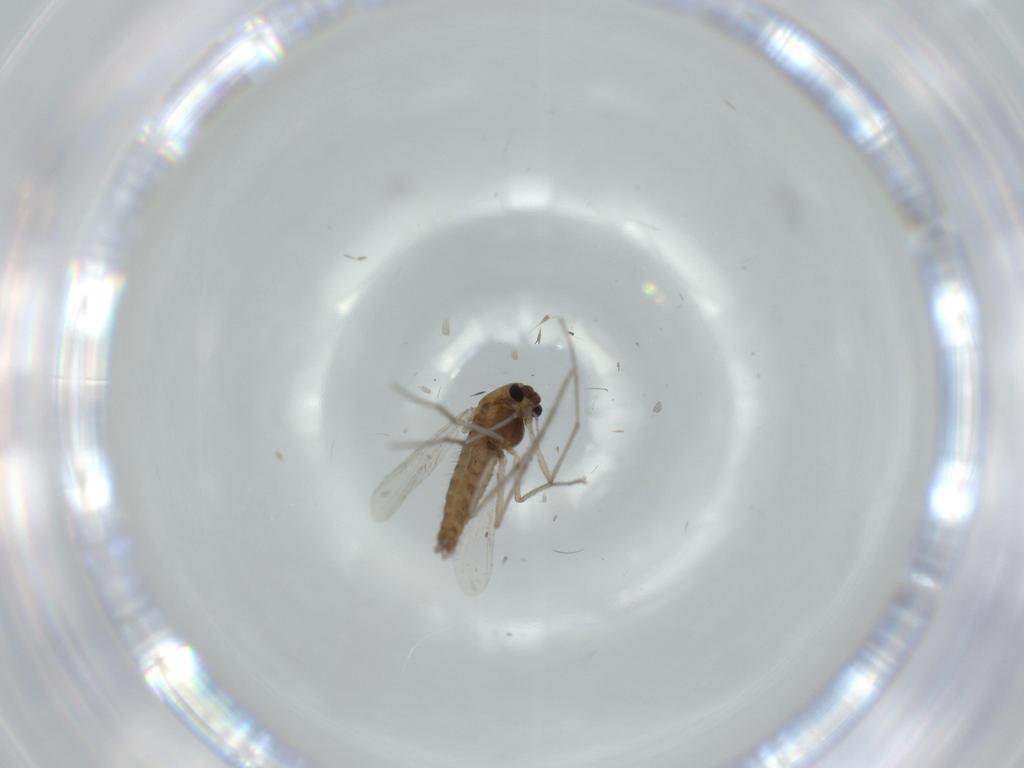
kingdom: Animalia
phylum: Arthropoda
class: Insecta
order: Diptera
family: Chironomidae
